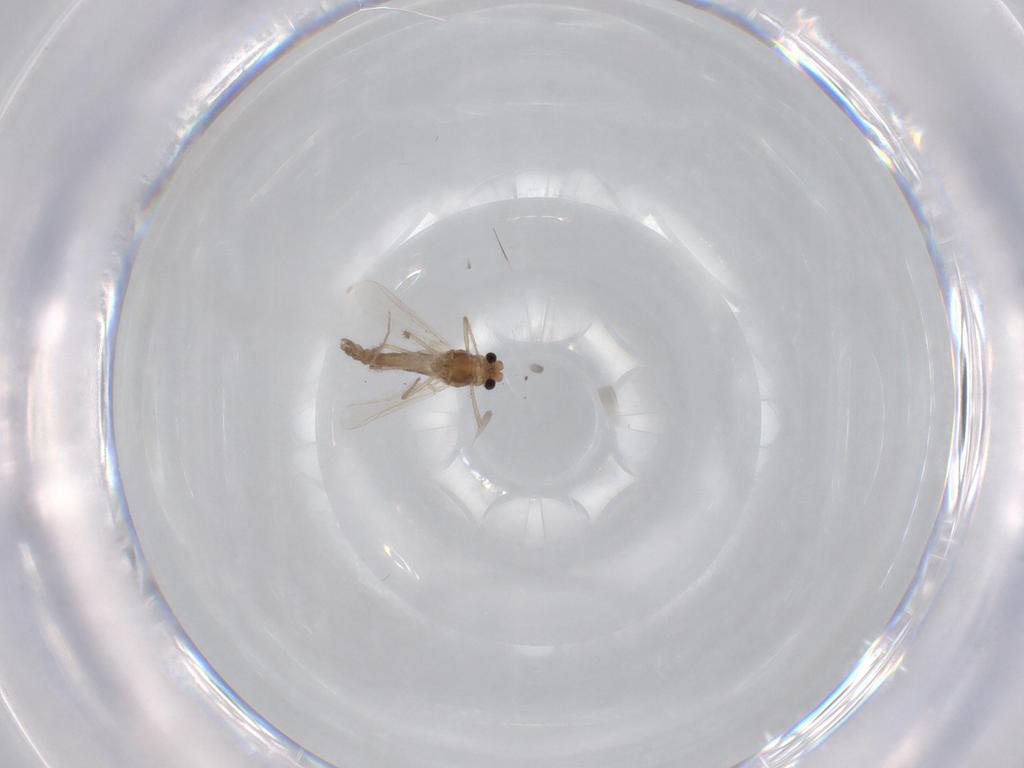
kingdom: Animalia
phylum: Arthropoda
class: Insecta
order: Diptera
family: Chironomidae
